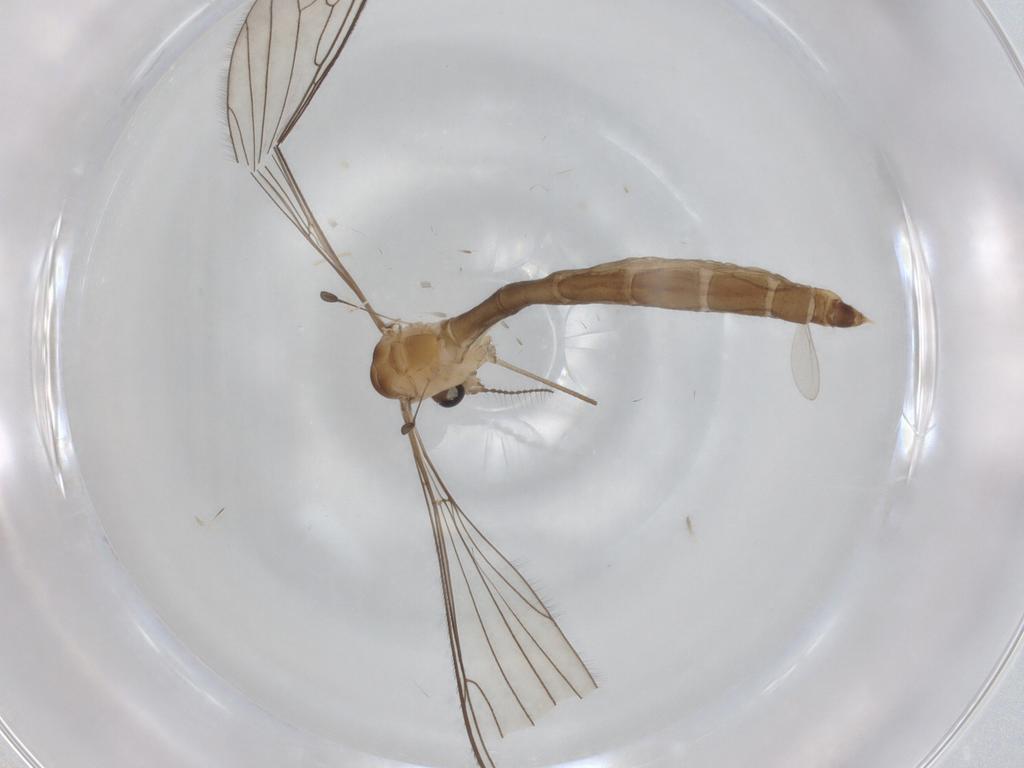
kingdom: Animalia
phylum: Arthropoda
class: Insecta
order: Diptera
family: Limoniidae
